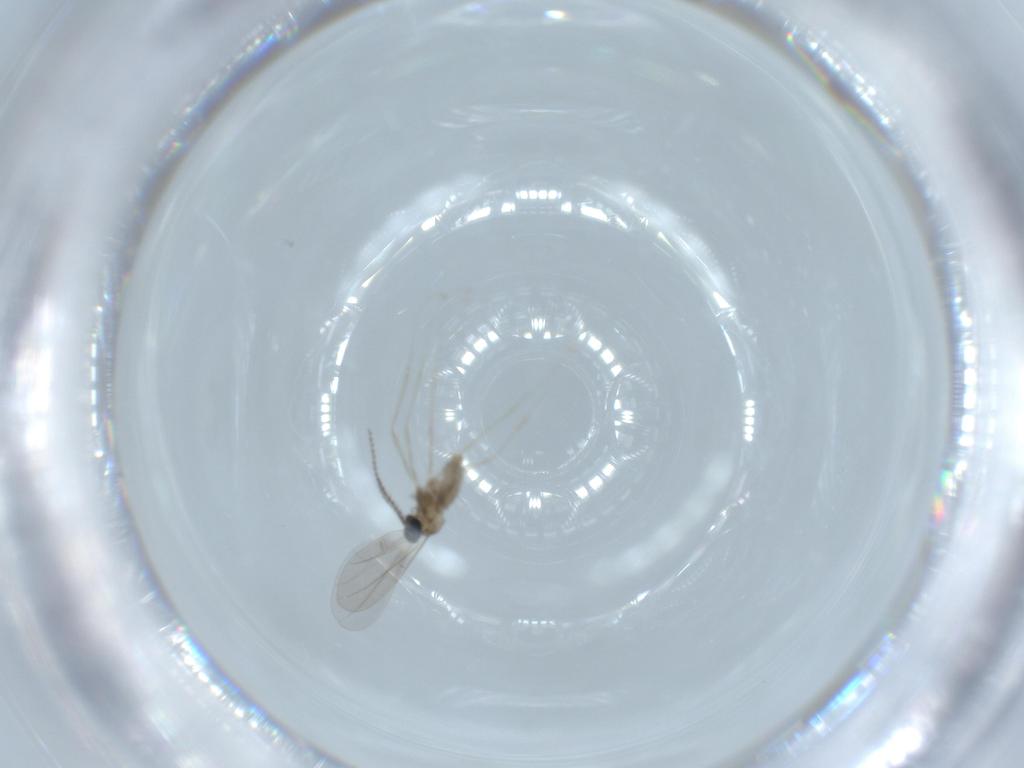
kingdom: Animalia
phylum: Arthropoda
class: Insecta
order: Diptera
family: Cecidomyiidae
